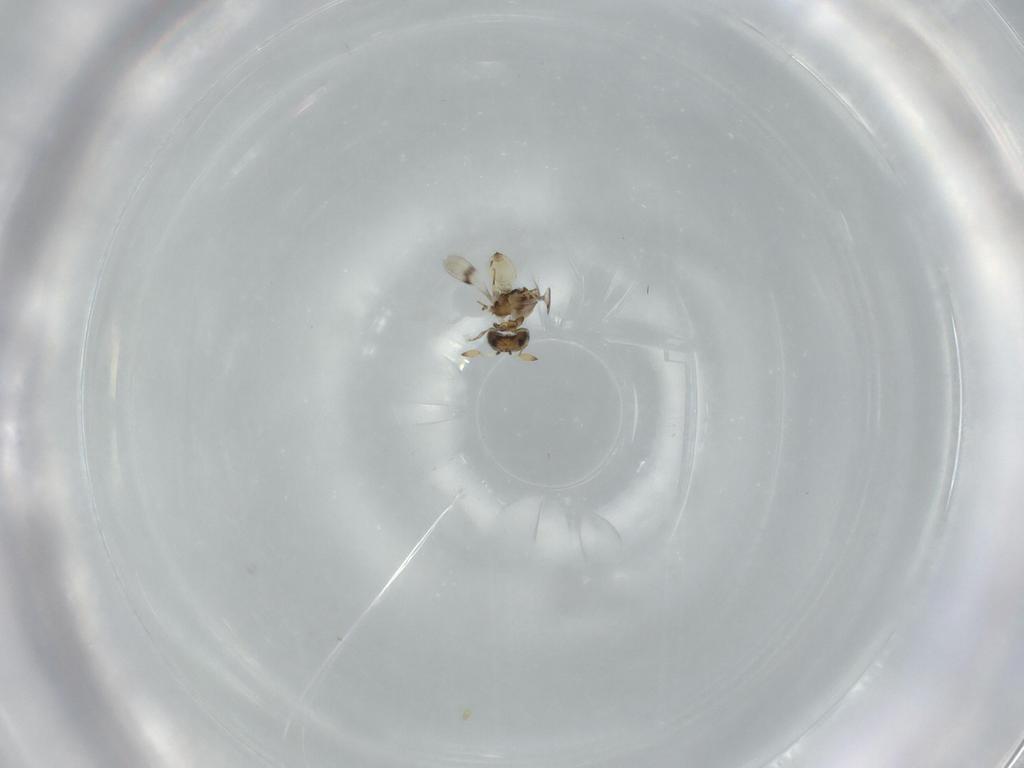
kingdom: Animalia
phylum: Arthropoda
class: Insecta
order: Hymenoptera
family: Scelionidae
